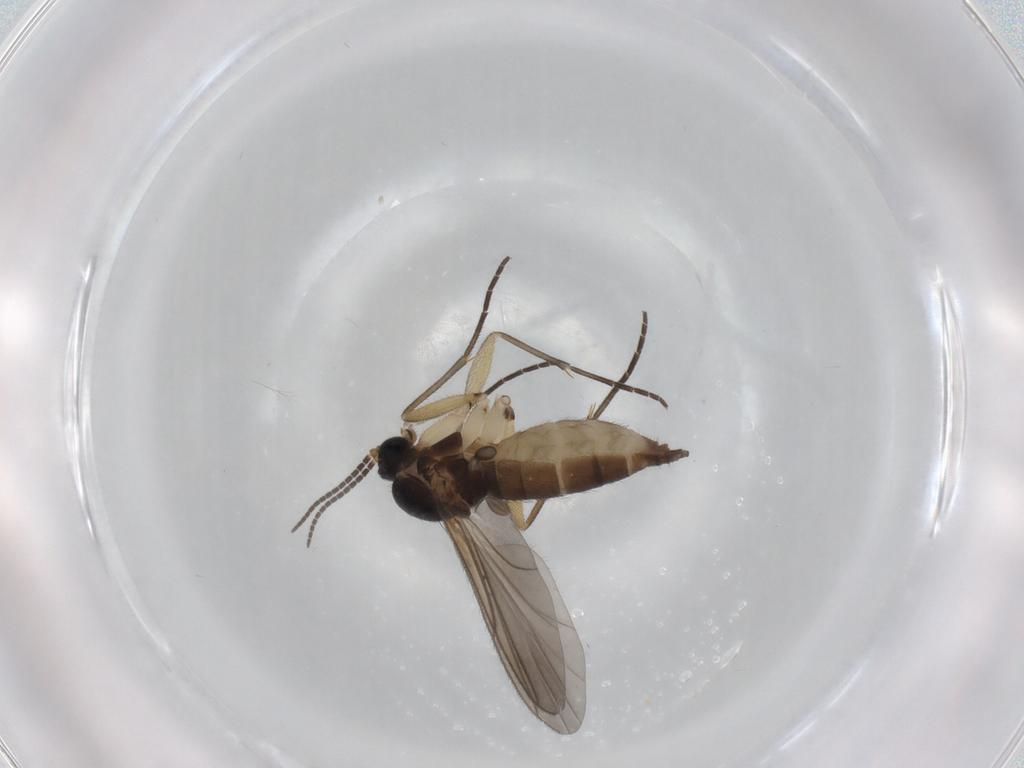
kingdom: Animalia
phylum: Arthropoda
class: Insecta
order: Diptera
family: Sciaridae
